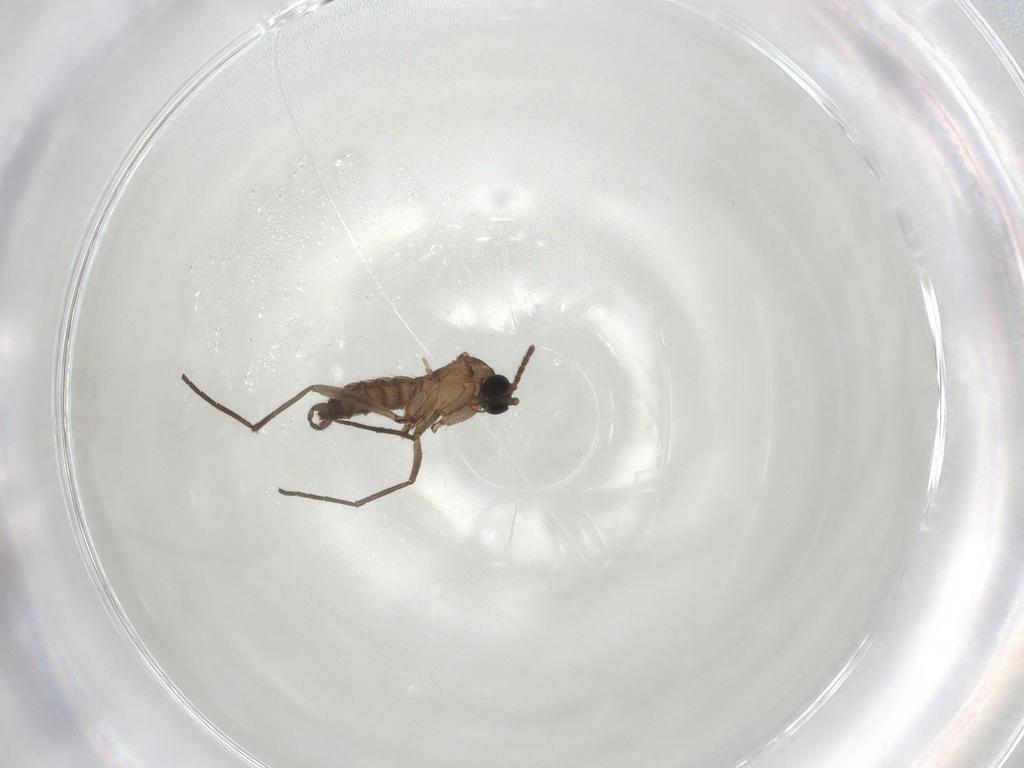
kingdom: Animalia
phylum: Arthropoda
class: Insecta
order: Diptera
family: Sciaridae
